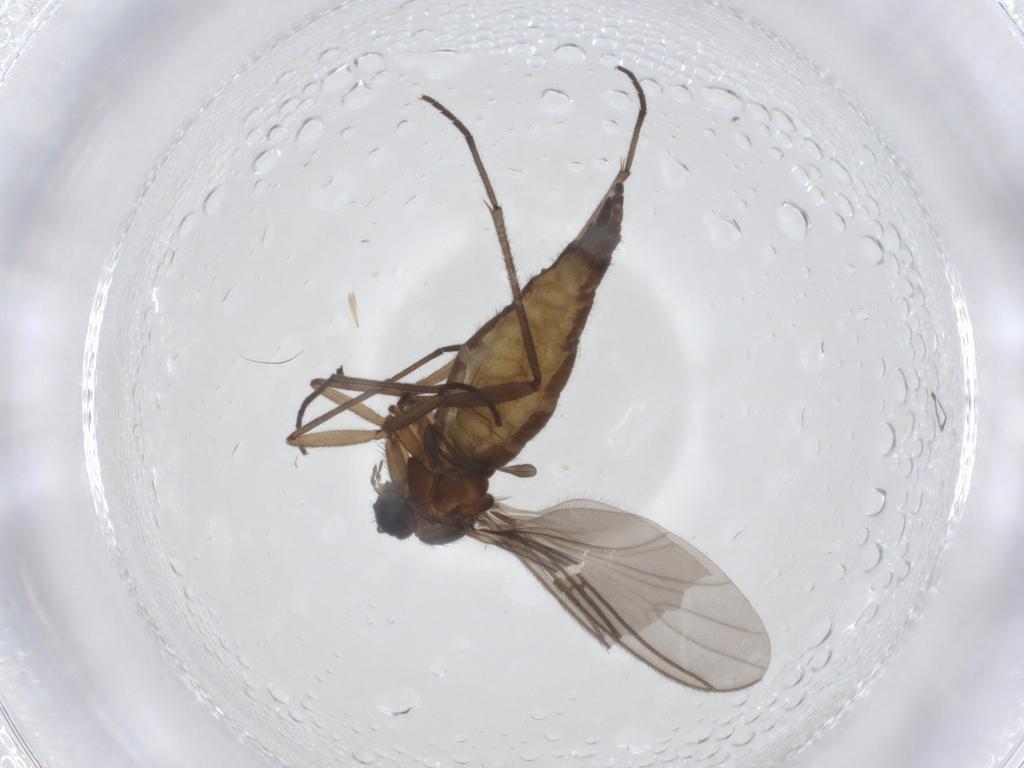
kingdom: Animalia
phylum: Arthropoda
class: Insecta
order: Diptera
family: Sciaridae
